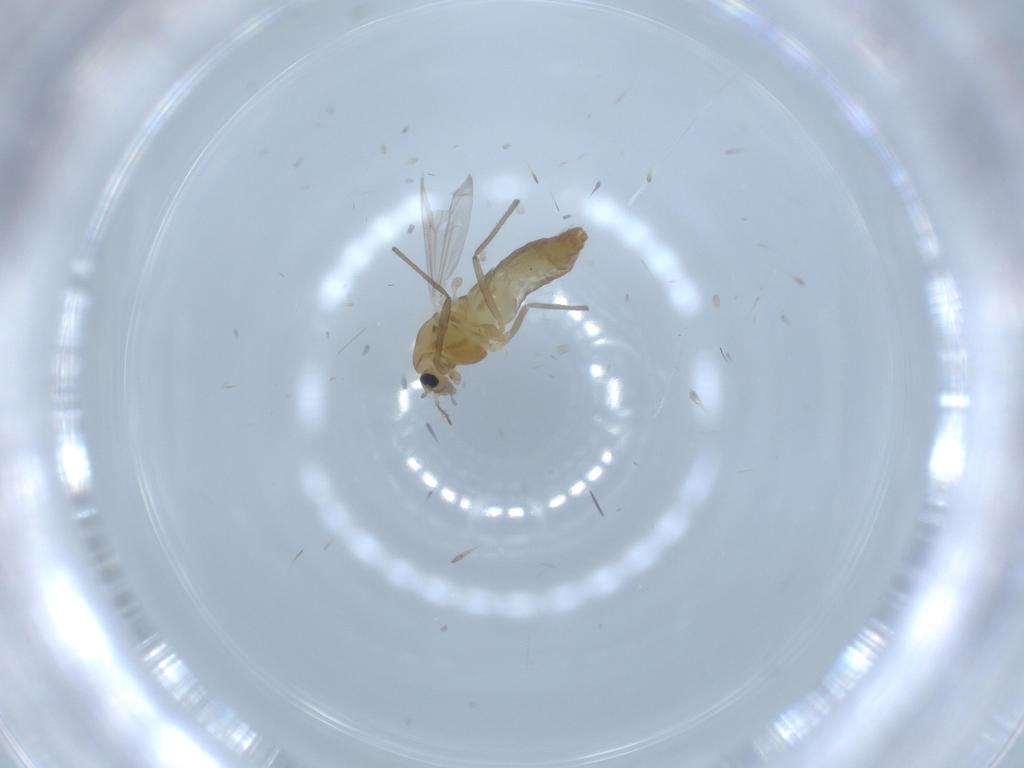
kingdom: Animalia
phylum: Arthropoda
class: Insecta
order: Diptera
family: Chironomidae
